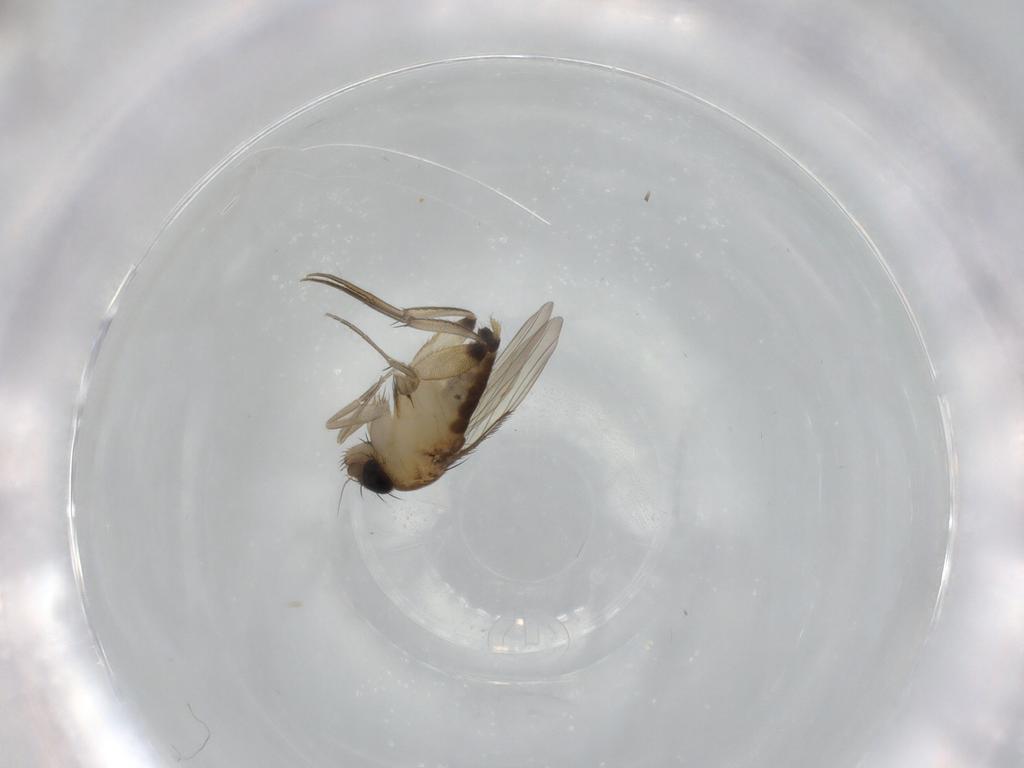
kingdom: Animalia
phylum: Arthropoda
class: Insecta
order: Diptera
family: Phoridae
